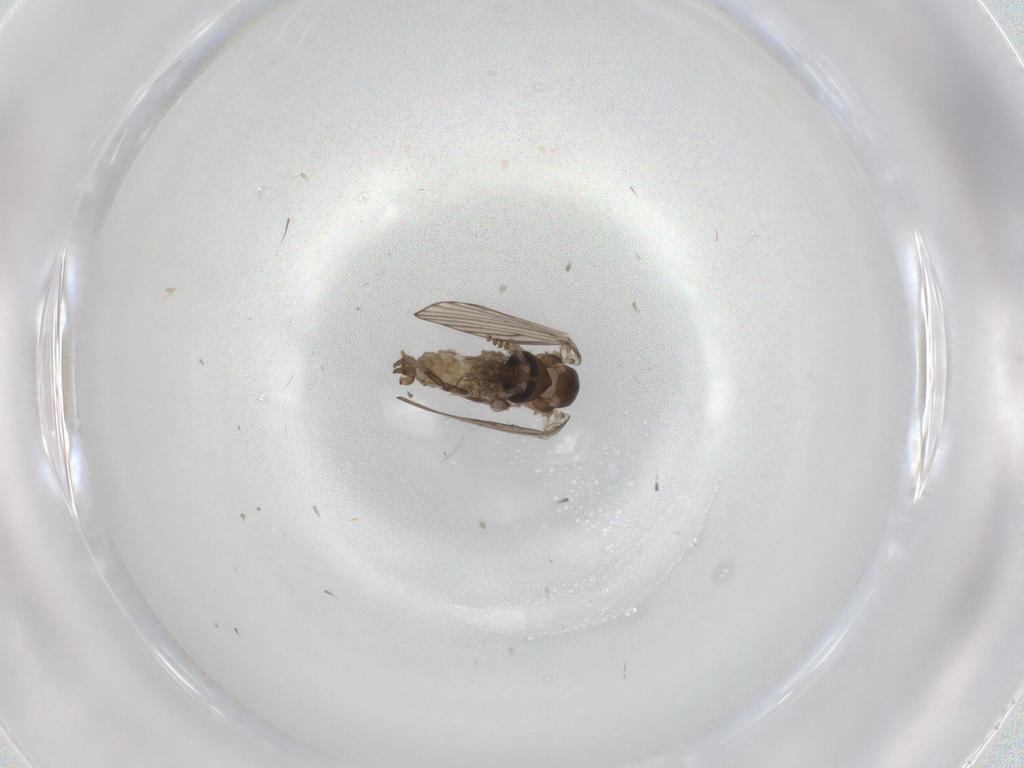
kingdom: Animalia
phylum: Arthropoda
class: Insecta
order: Diptera
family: Psychodidae
